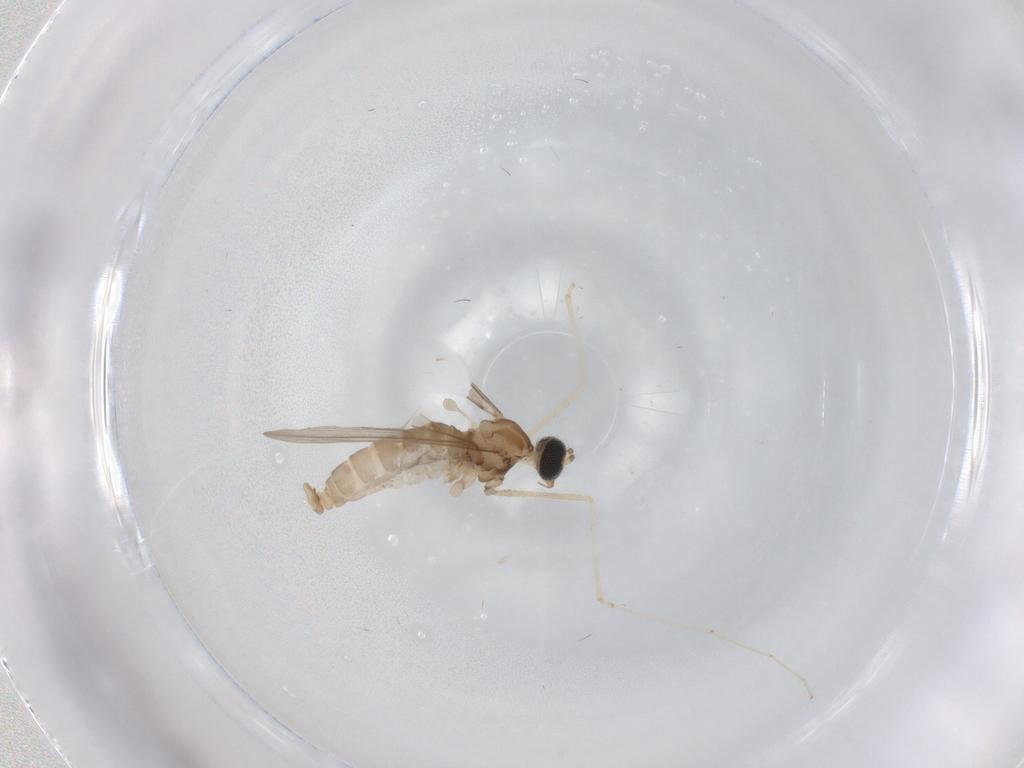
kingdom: Animalia
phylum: Arthropoda
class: Insecta
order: Diptera
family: Cecidomyiidae
